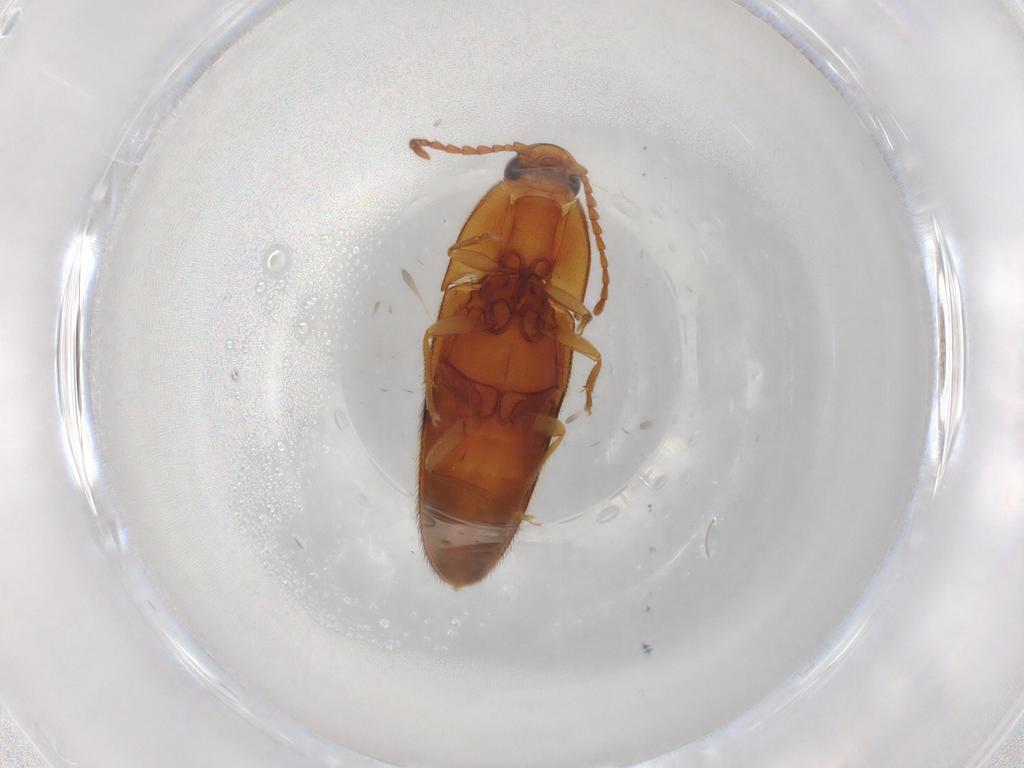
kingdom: Animalia
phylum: Arthropoda
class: Insecta
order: Coleoptera
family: Elateridae
